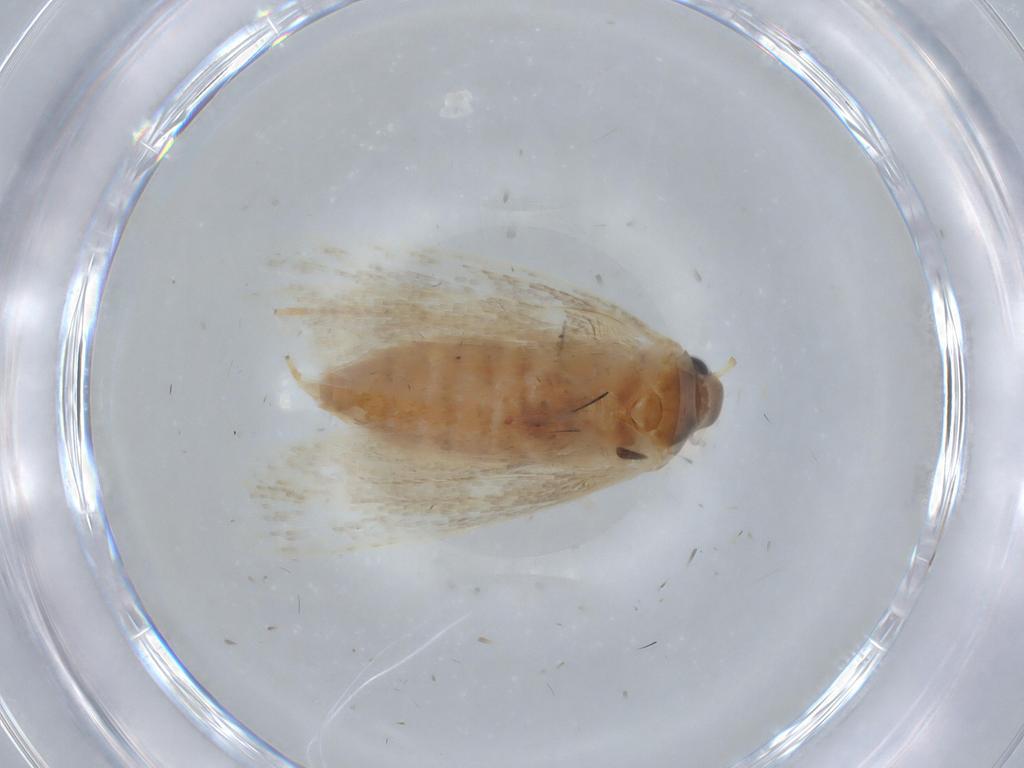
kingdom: Animalia
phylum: Arthropoda
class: Insecta
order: Lepidoptera
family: Oecophoridae
